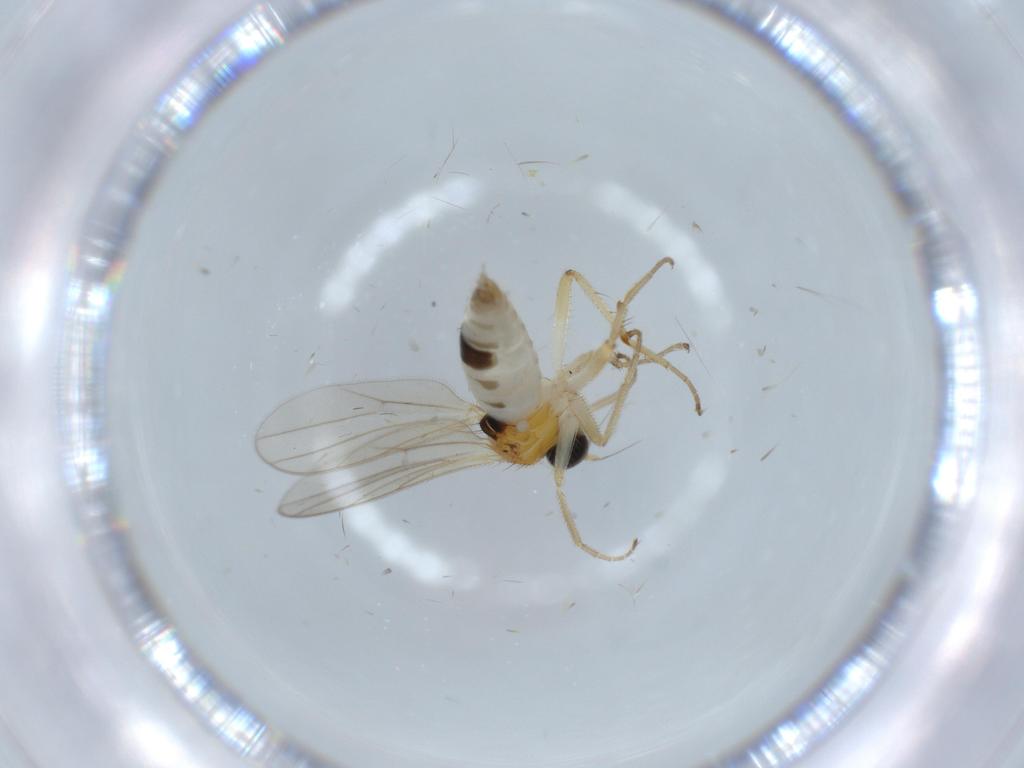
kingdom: Animalia
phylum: Arthropoda
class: Insecta
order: Diptera
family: Hybotidae
